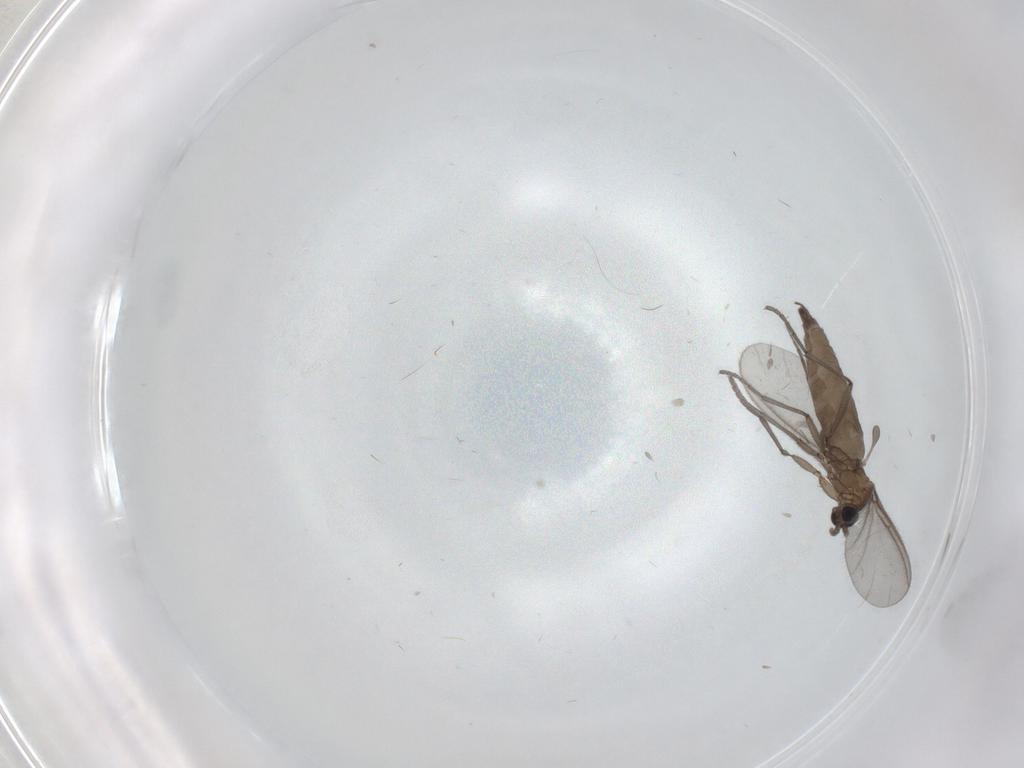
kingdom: Animalia
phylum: Arthropoda
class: Insecta
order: Diptera
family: Sciaridae
